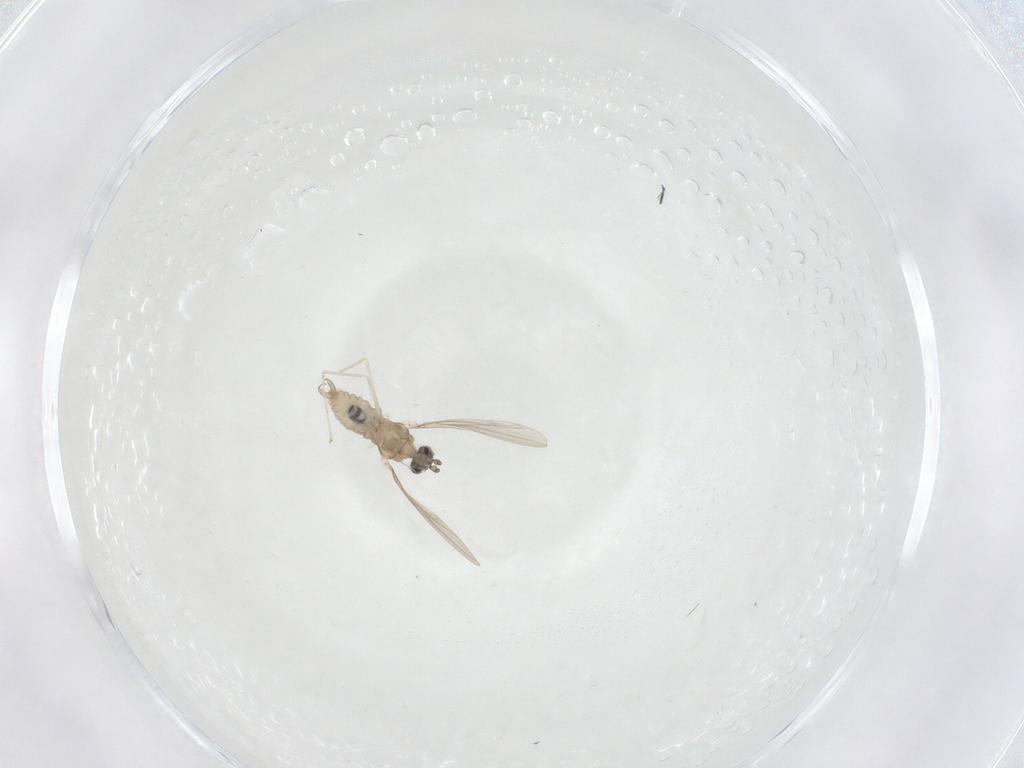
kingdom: Animalia
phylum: Arthropoda
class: Insecta
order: Diptera
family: Cecidomyiidae
